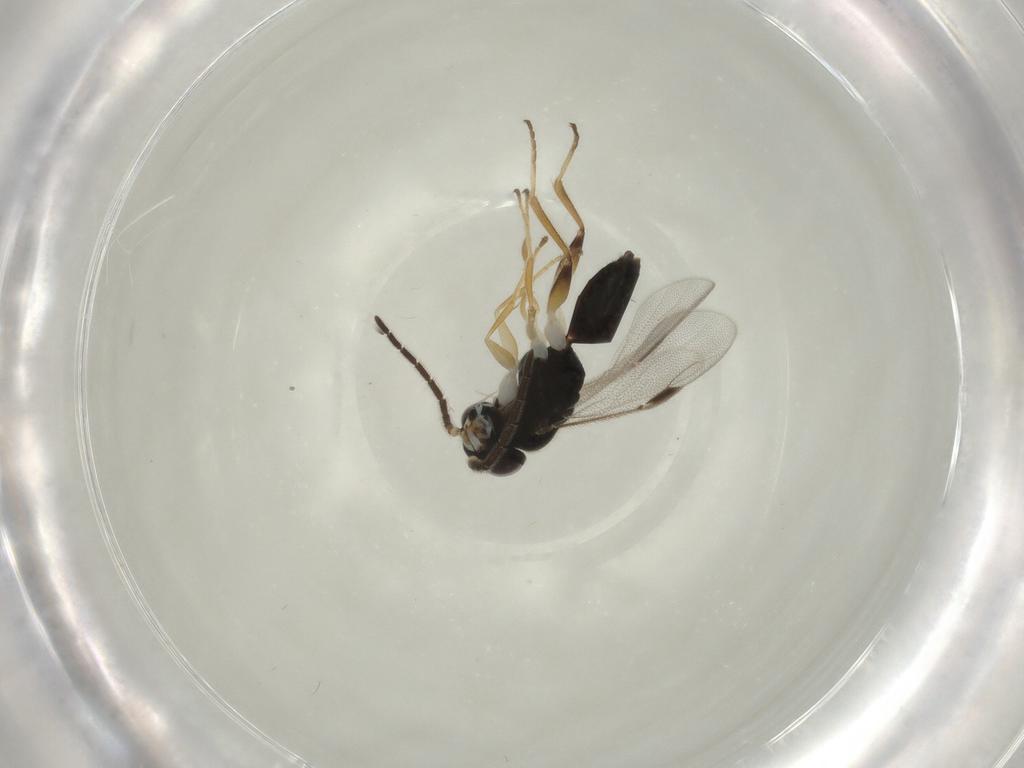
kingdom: Animalia
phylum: Arthropoda
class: Insecta
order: Hymenoptera
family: Dryinidae
